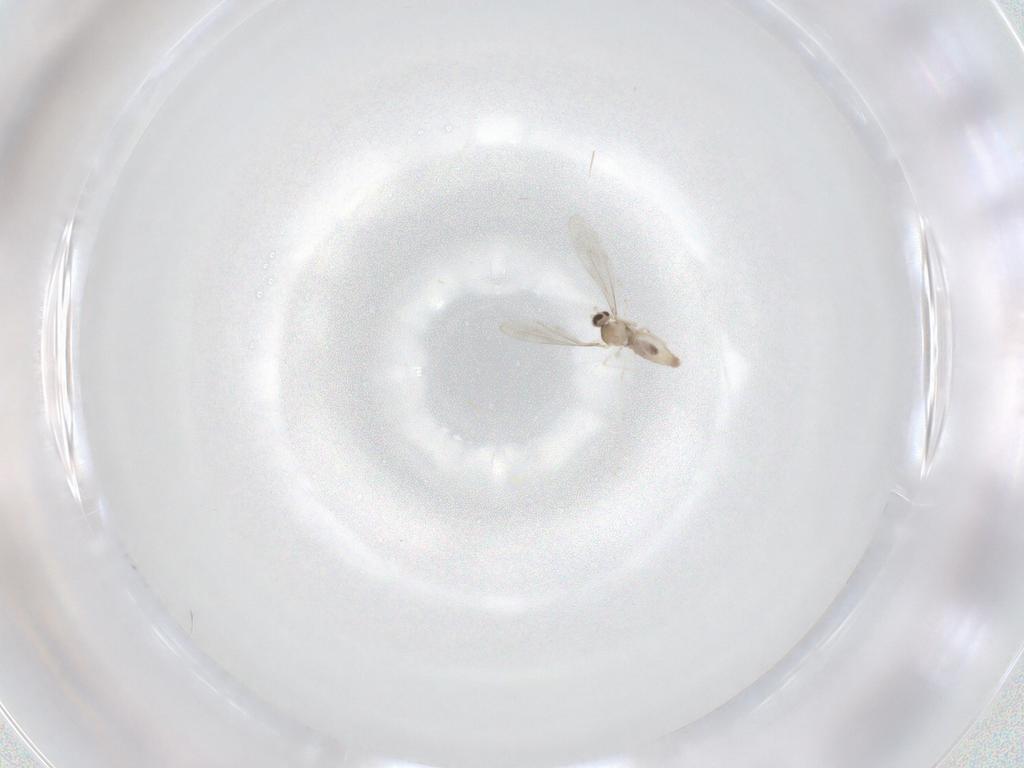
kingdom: Animalia
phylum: Arthropoda
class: Insecta
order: Diptera
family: Cecidomyiidae
